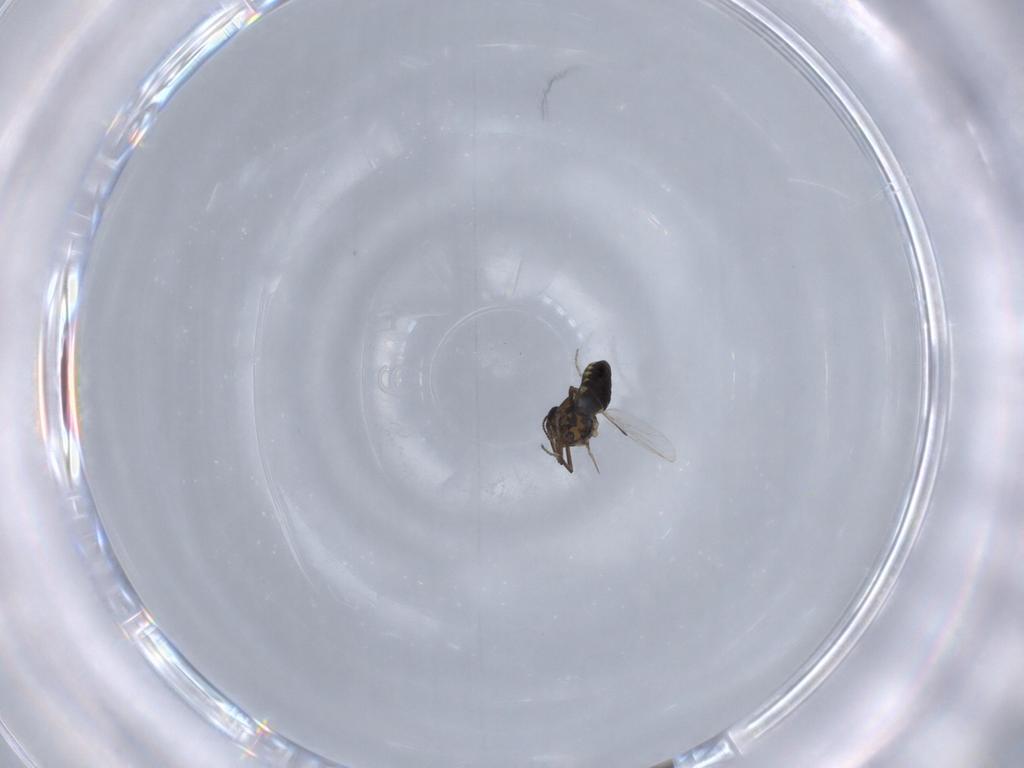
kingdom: Animalia
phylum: Arthropoda
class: Insecta
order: Diptera
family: Ceratopogonidae
